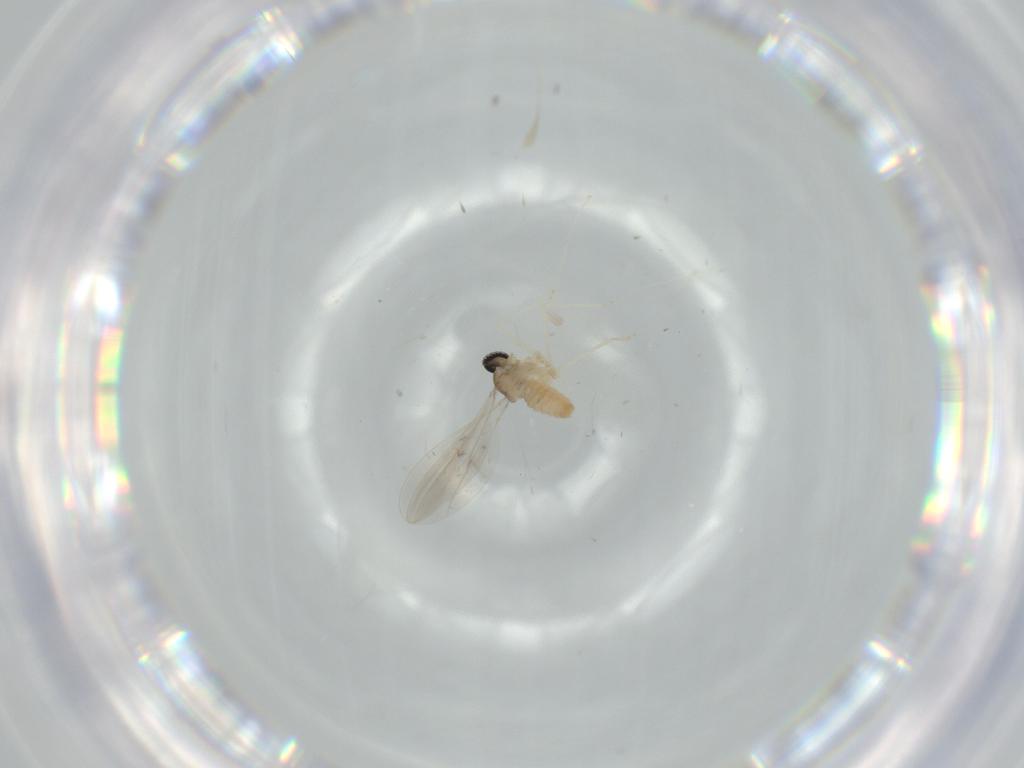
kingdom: Animalia
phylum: Arthropoda
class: Insecta
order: Diptera
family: Cecidomyiidae
